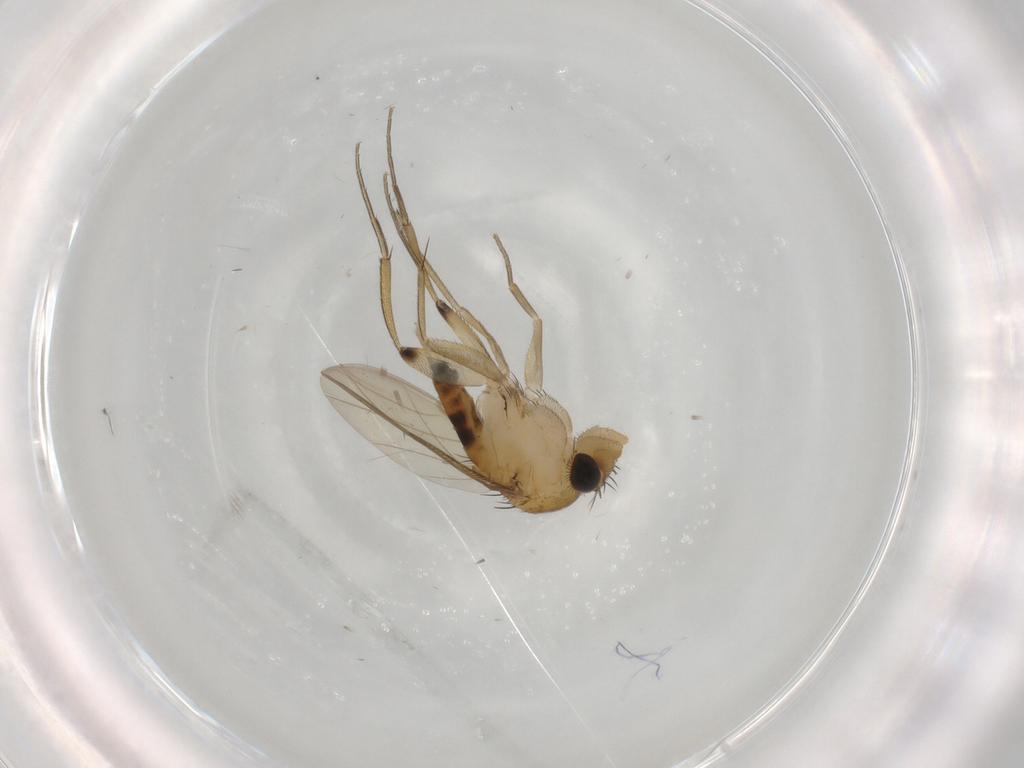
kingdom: Animalia
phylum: Arthropoda
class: Insecta
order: Diptera
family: Phoridae
